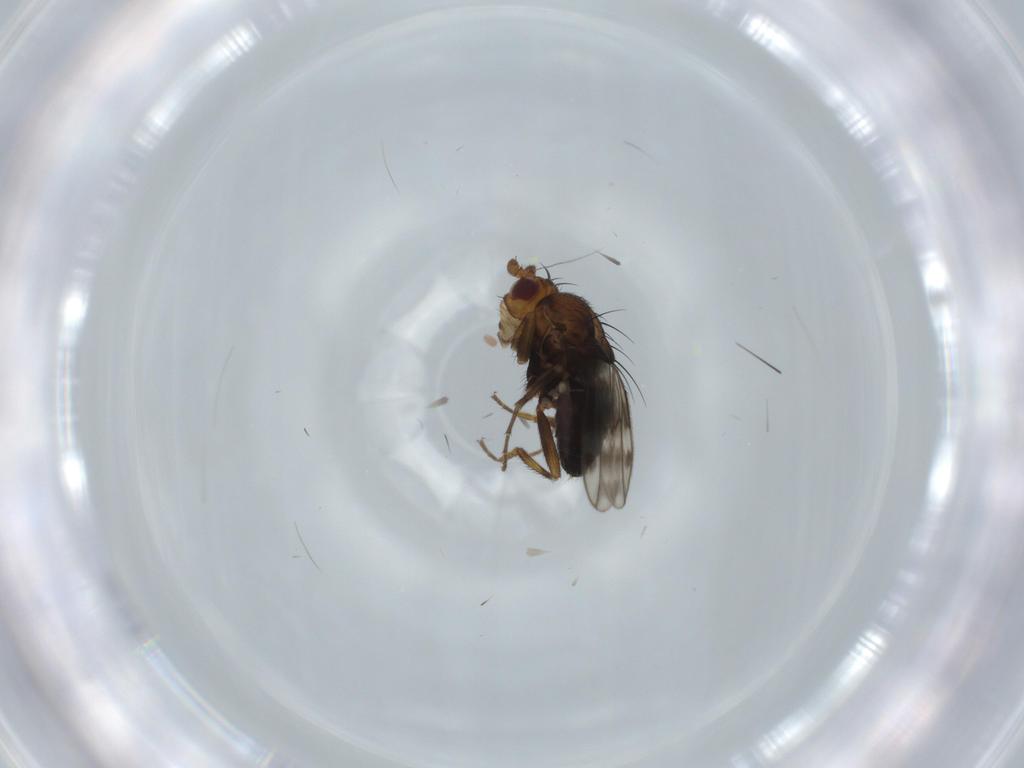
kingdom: Animalia
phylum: Arthropoda
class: Insecta
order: Diptera
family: Sphaeroceridae
